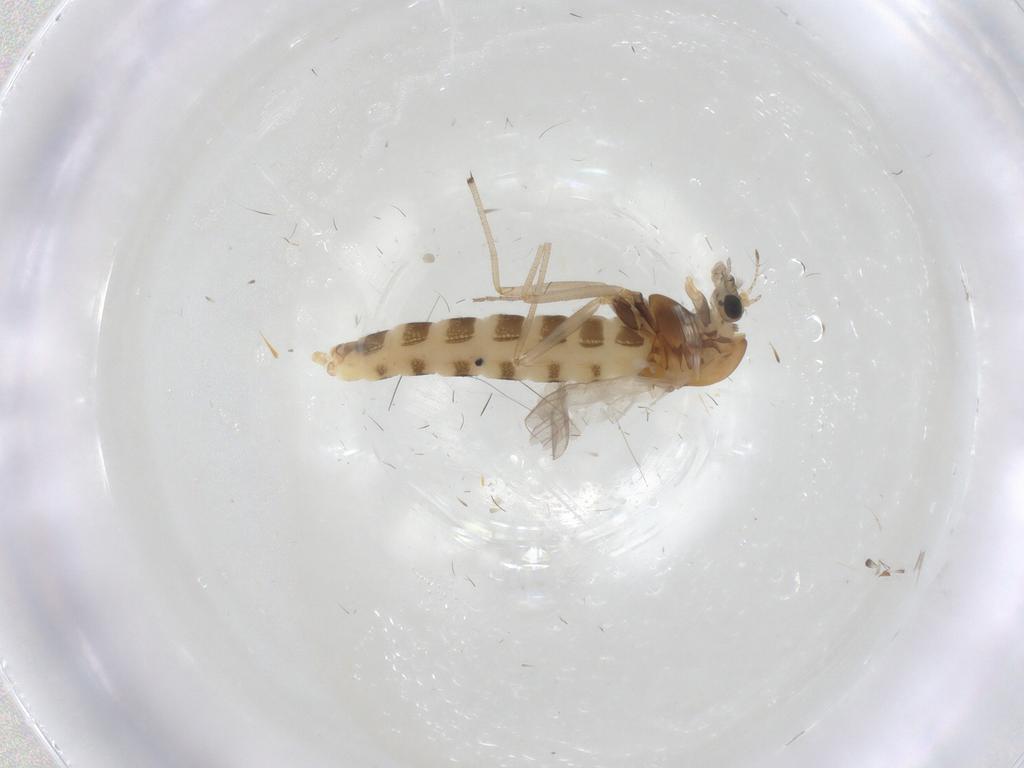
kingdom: Animalia
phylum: Arthropoda
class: Insecta
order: Diptera
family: Chironomidae
